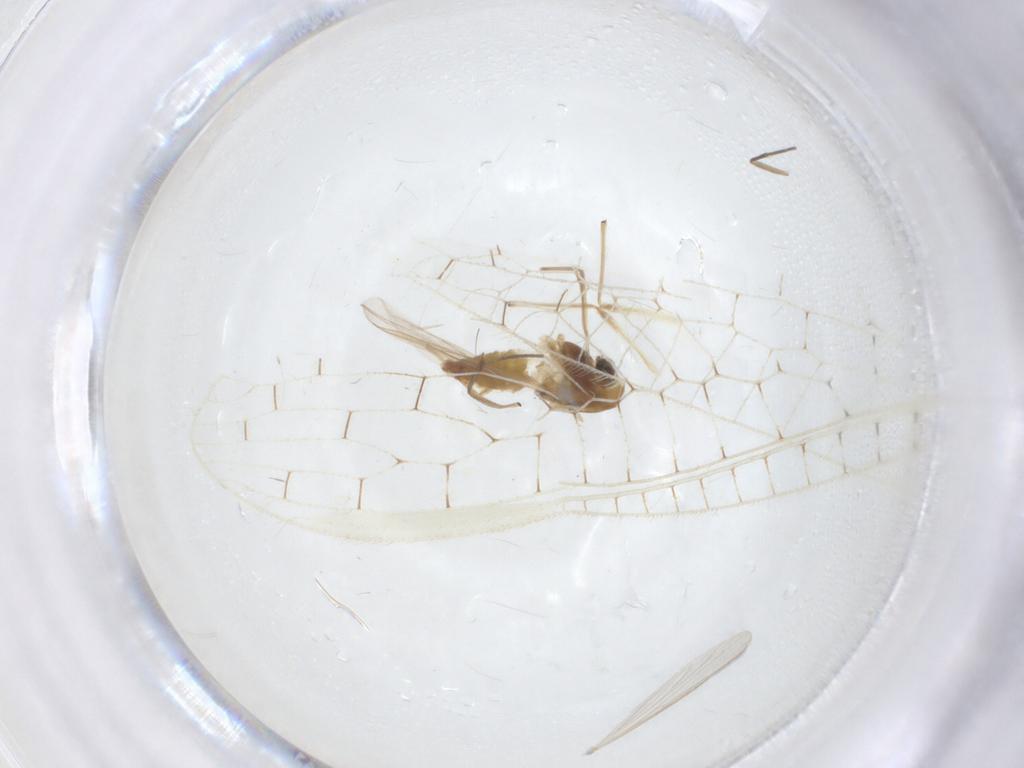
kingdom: Animalia
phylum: Arthropoda
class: Insecta
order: Diptera
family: Chironomidae
